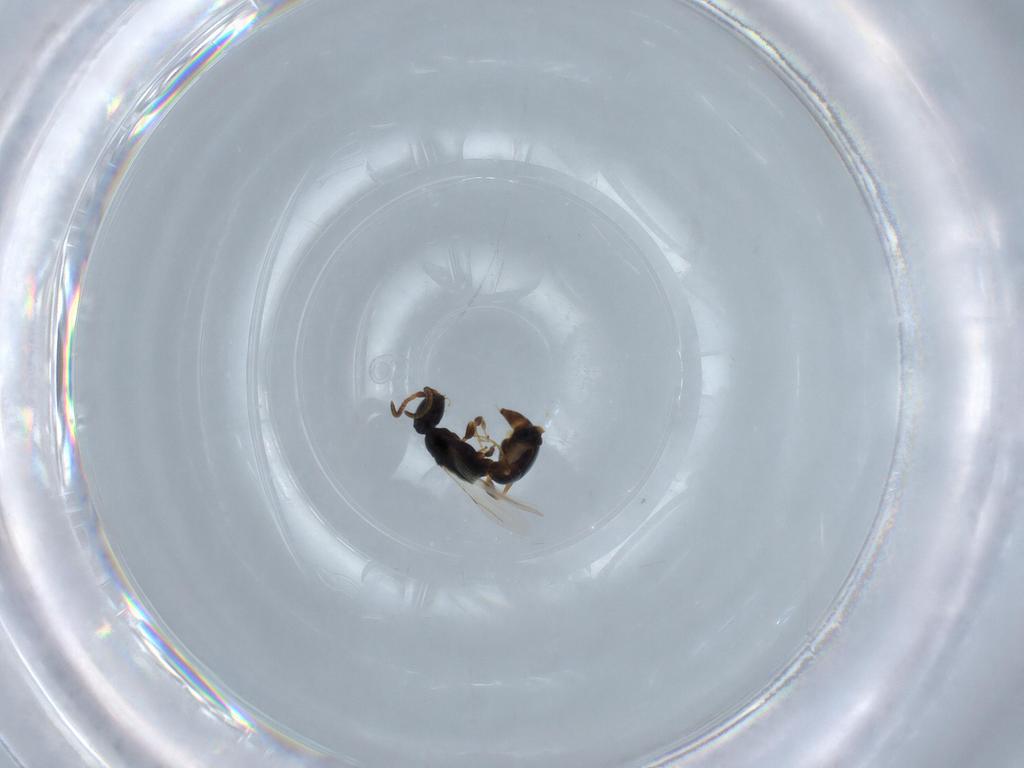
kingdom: Animalia
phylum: Arthropoda
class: Insecta
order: Hymenoptera
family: Bethylidae
